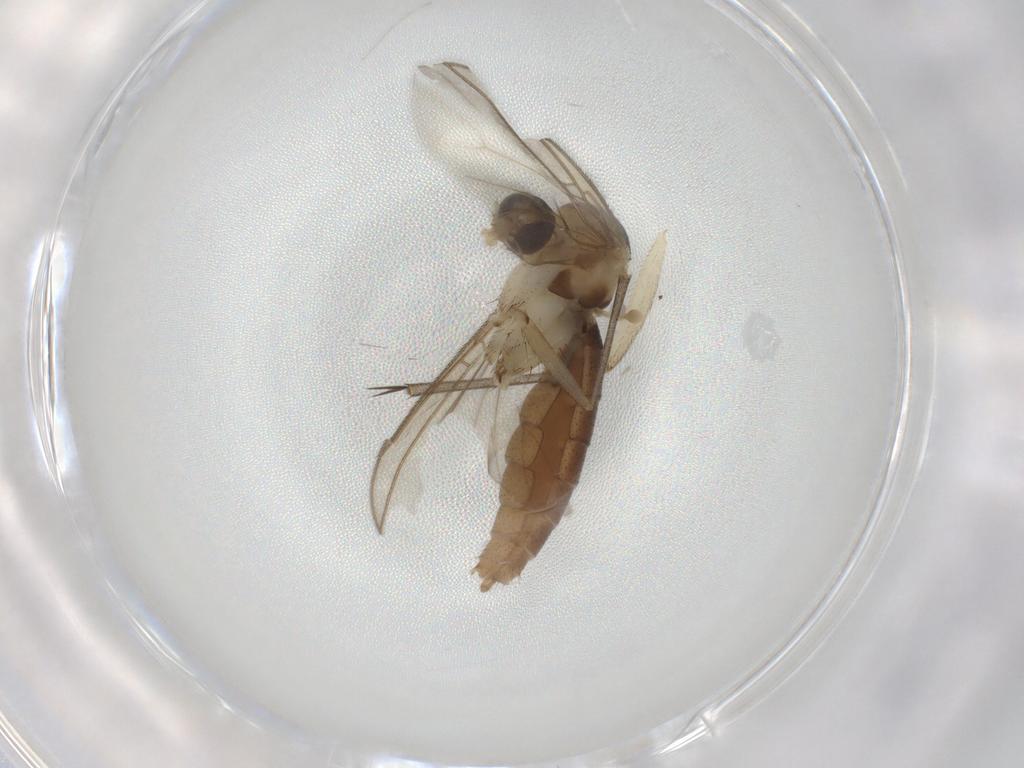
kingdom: Animalia
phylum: Arthropoda
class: Insecta
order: Diptera
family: Mycetophilidae
